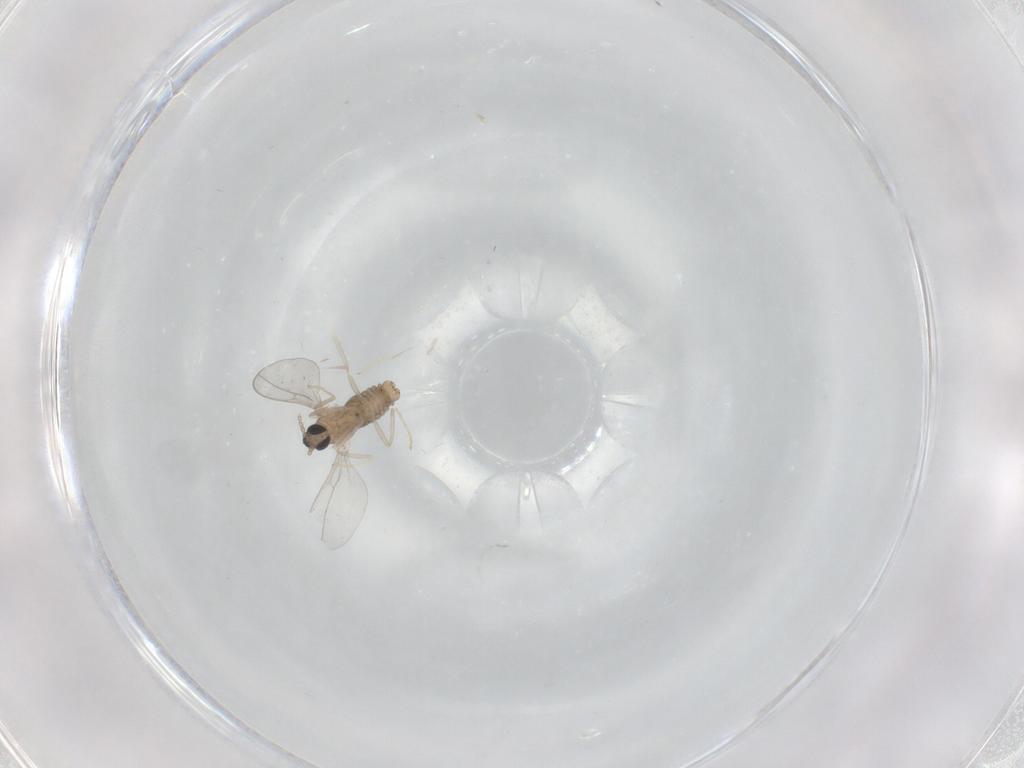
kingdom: Animalia
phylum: Arthropoda
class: Insecta
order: Diptera
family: Cecidomyiidae
